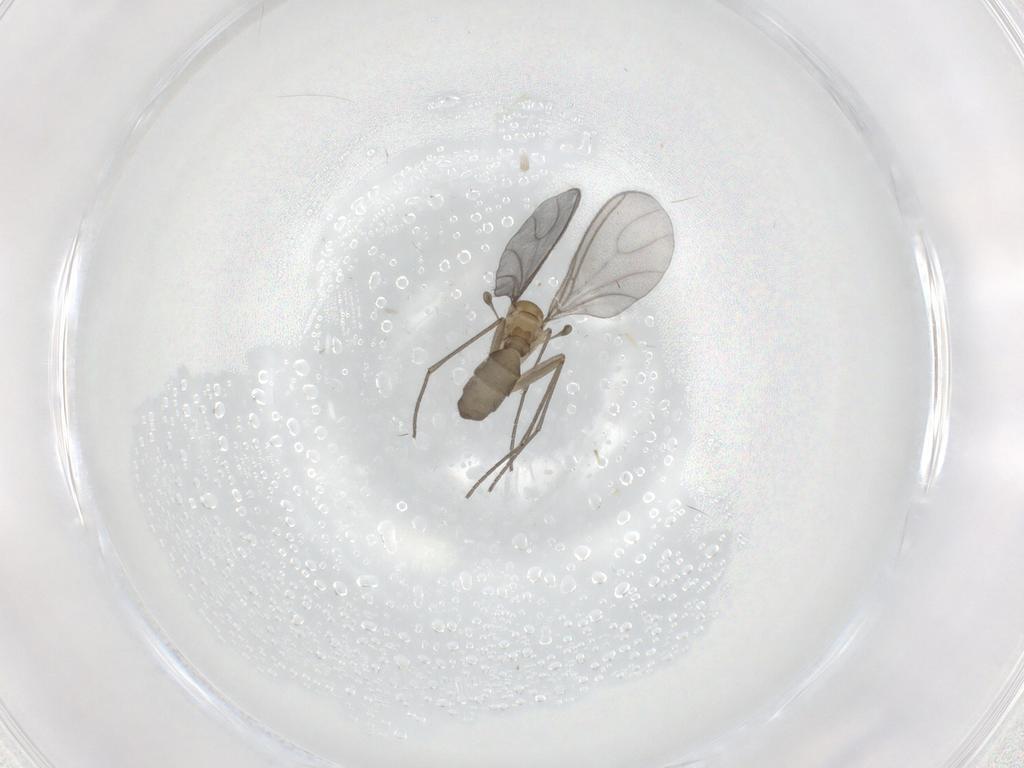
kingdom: Animalia
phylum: Arthropoda
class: Insecta
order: Diptera
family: Sciaridae
